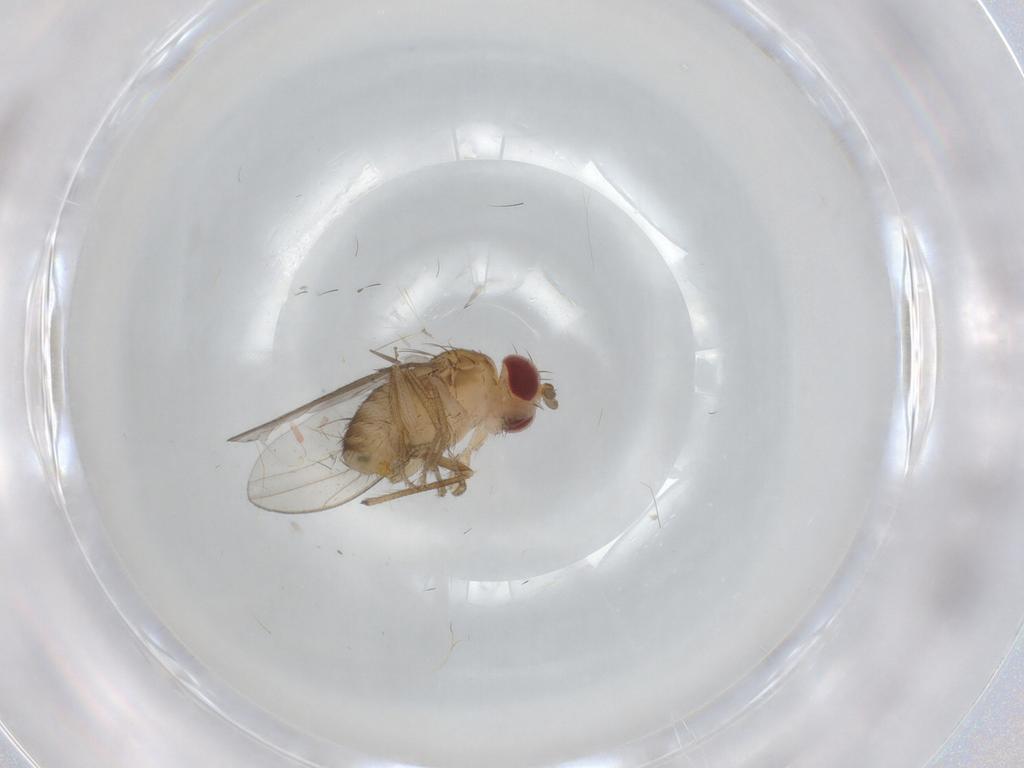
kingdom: Animalia
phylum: Arthropoda
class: Insecta
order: Diptera
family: Drosophilidae
